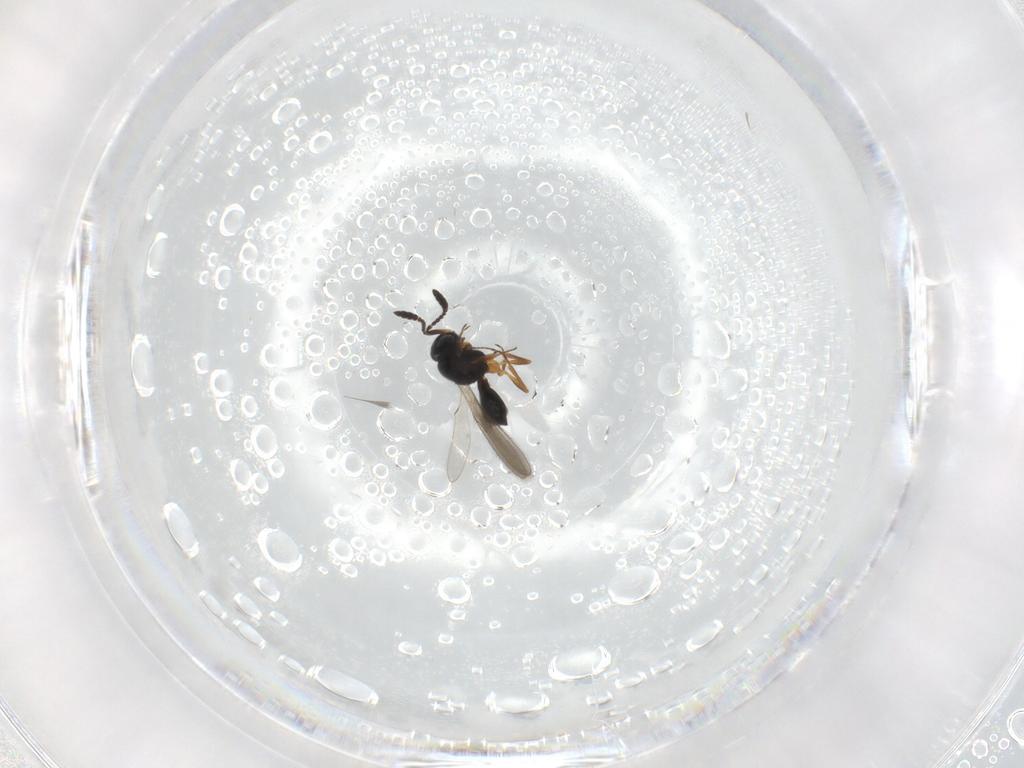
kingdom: Animalia
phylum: Arthropoda
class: Insecta
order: Hymenoptera
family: Scelionidae
